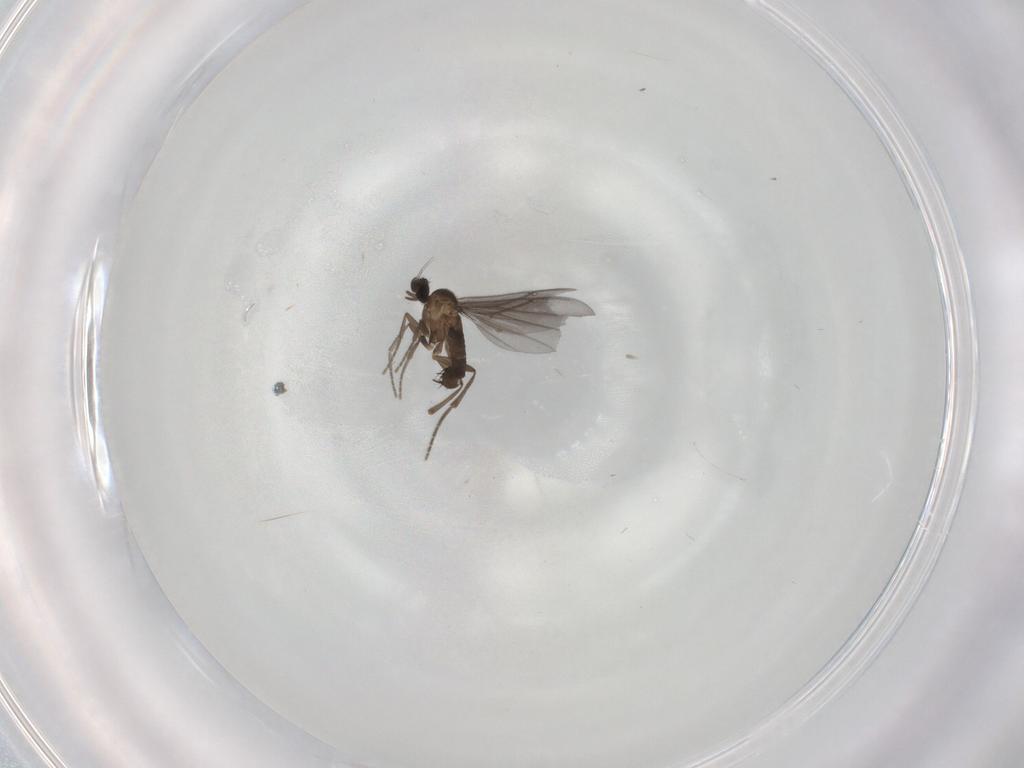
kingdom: Animalia
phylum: Arthropoda
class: Insecta
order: Diptera
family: Phoridae
